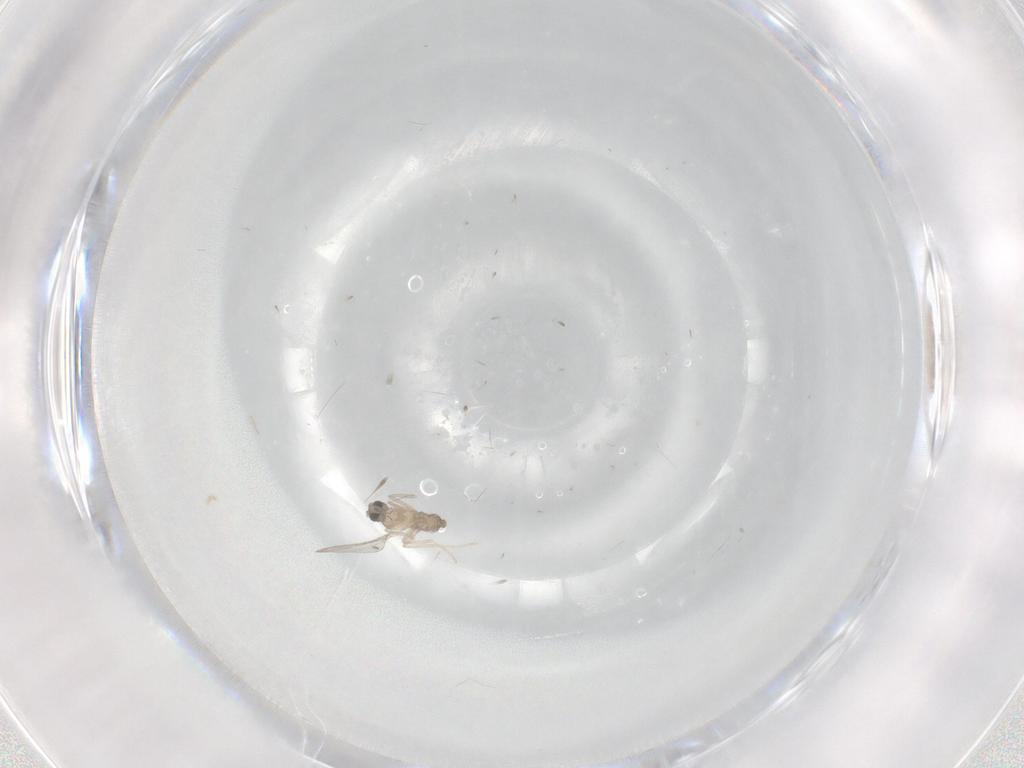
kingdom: Animalia
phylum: Arthropoda
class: Insecta
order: Diptera
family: Cecidomyiidae
